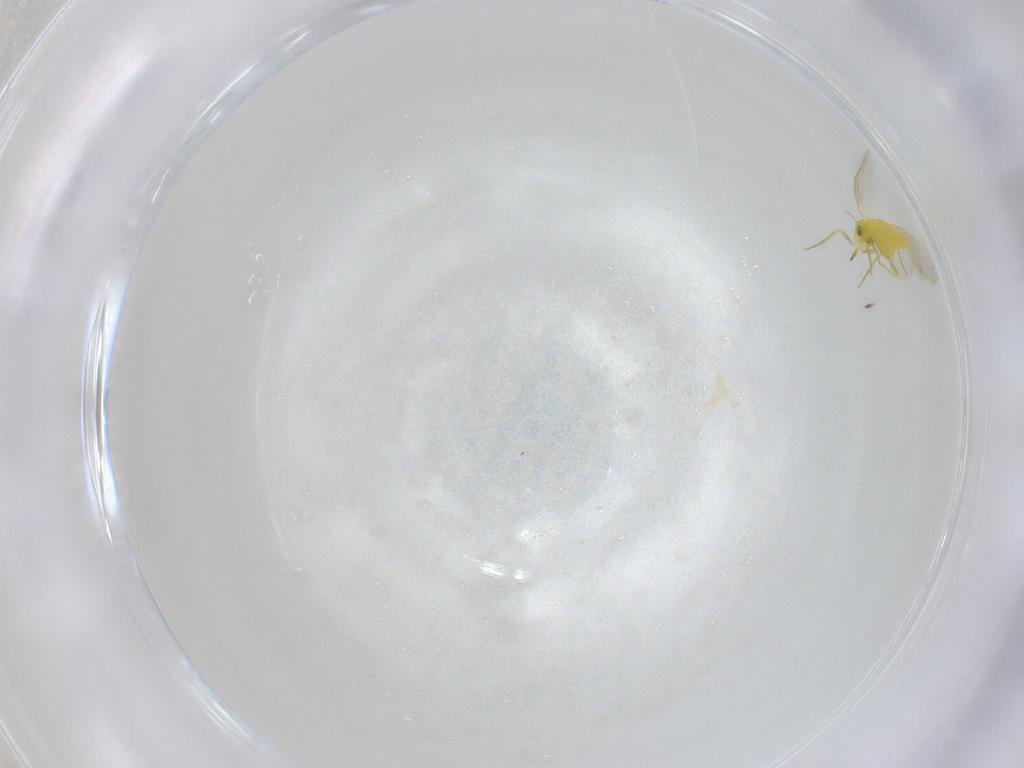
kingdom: Animalia
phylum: Arthropoda
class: Insecta
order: Hemiptera
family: Aleyrodidae
